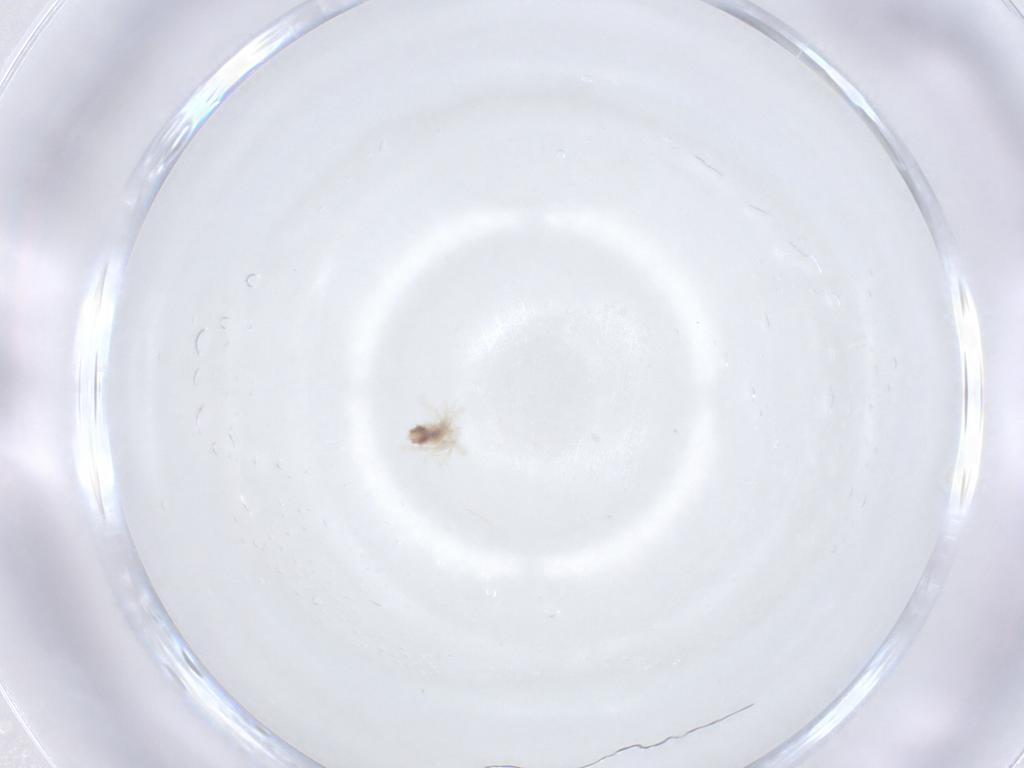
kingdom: Animalia
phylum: Arthropoda
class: Arachnida
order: Trombidiformes
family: Anystidae
